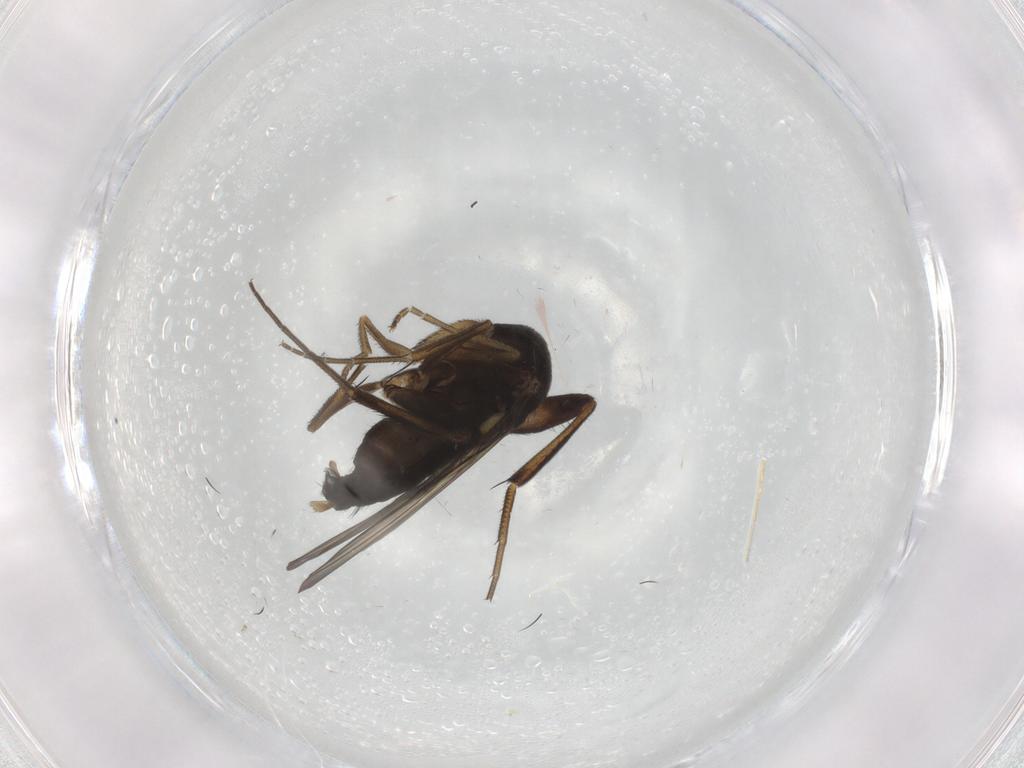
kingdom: Animalia
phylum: Arthropoda
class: Insecta
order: Diptera
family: Phoridae
